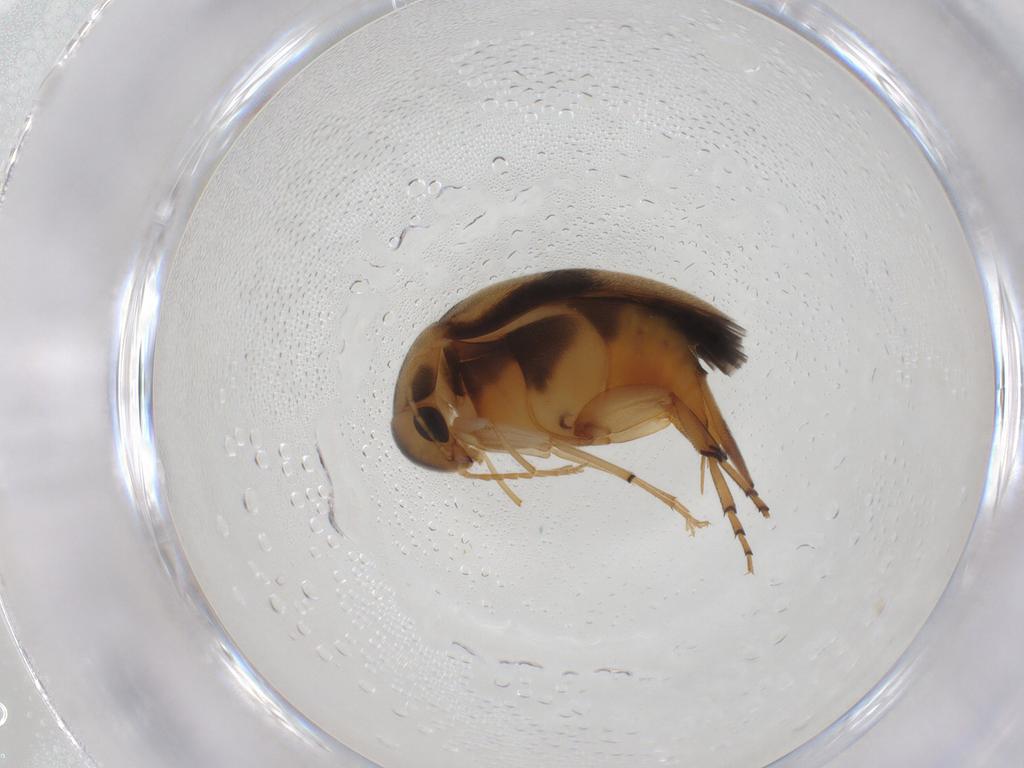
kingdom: Animalia
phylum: Arthropoda
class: Insecta
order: Coleoptera
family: Mordellidae
